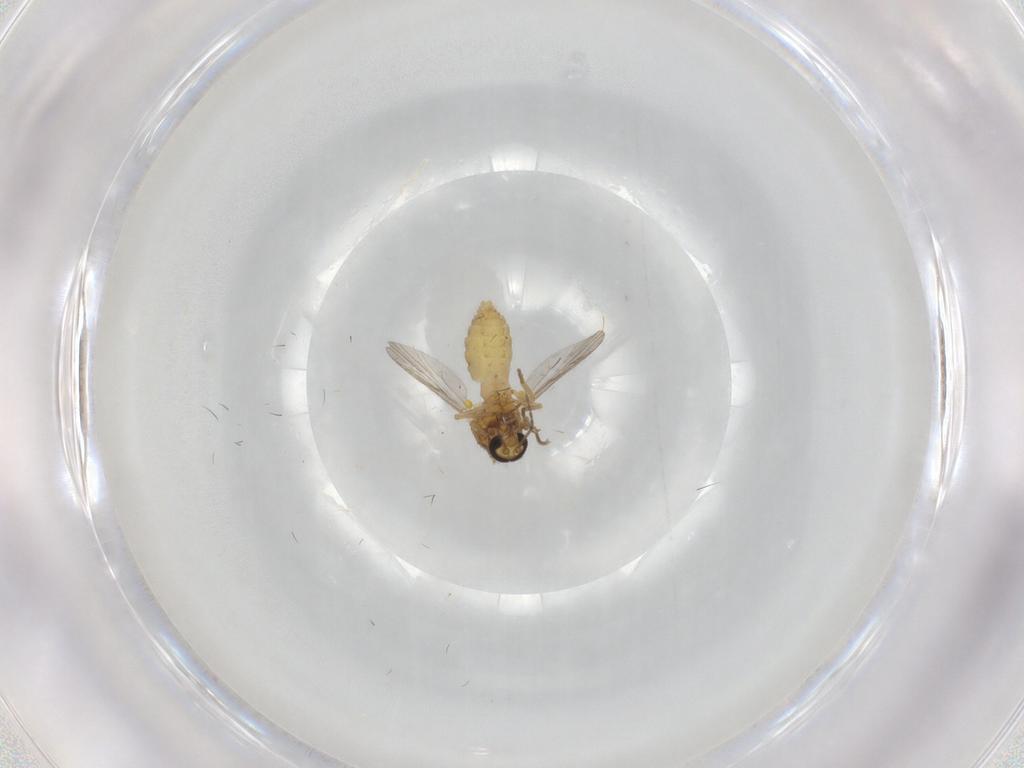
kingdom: Animalia
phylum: Arthropoda
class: Insecta
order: Diptera
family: Ceratopogonidae
